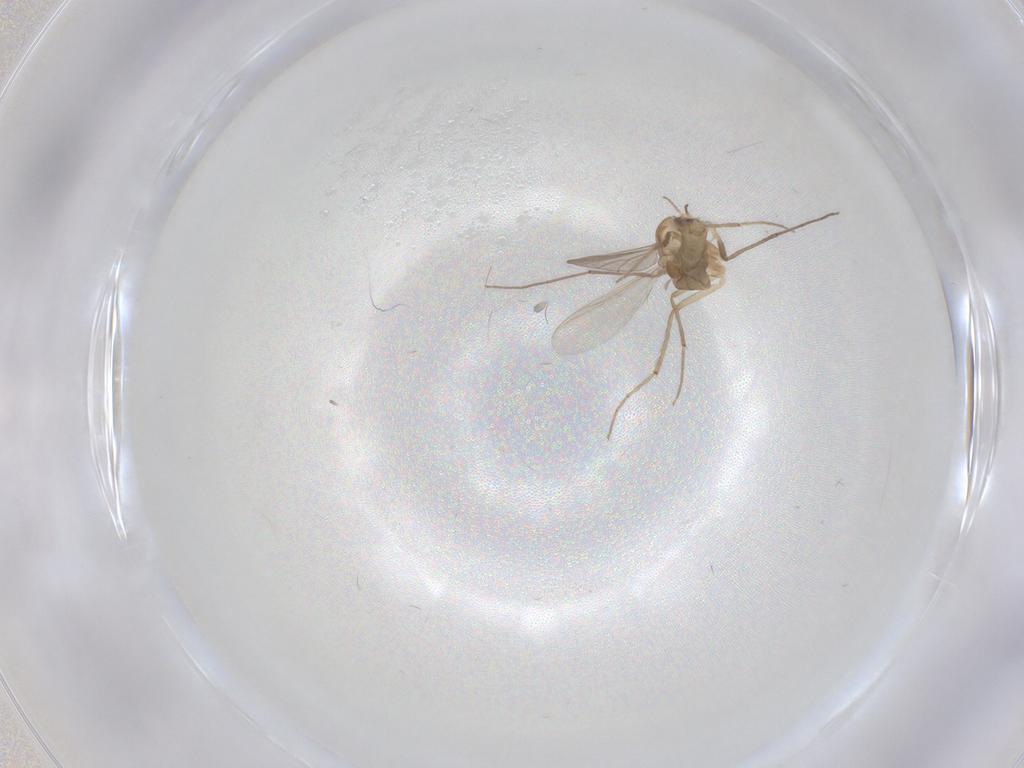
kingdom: Animalia
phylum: Arthropoda
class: Insecta
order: Diptera
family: Chironomidae
